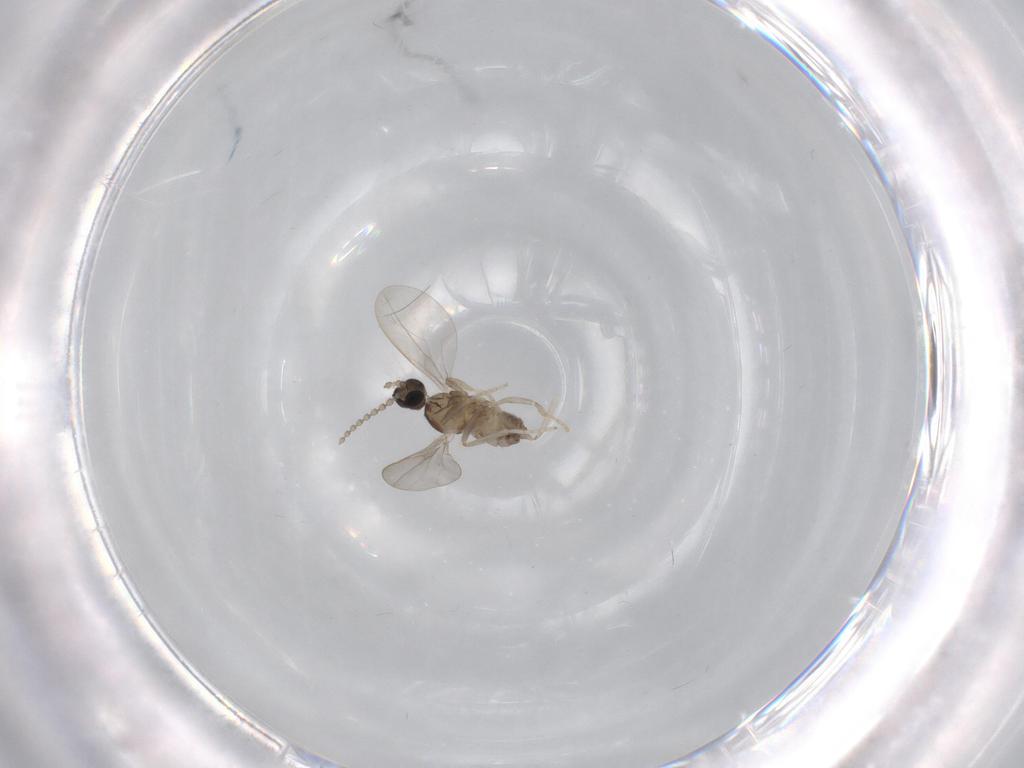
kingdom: Animalia
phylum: Arthropoda
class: Insecta
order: Diptera
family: Cecidomyiidae
